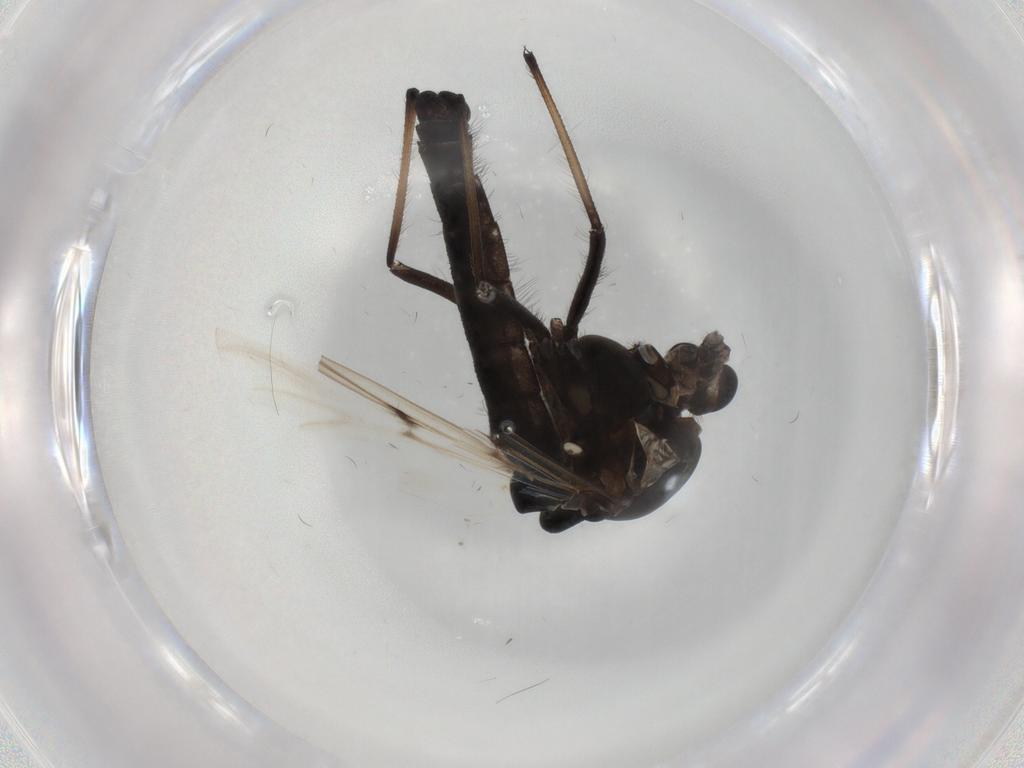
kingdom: Animalia
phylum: Arthropoda
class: Insecta
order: Diptera
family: Chironomidae
